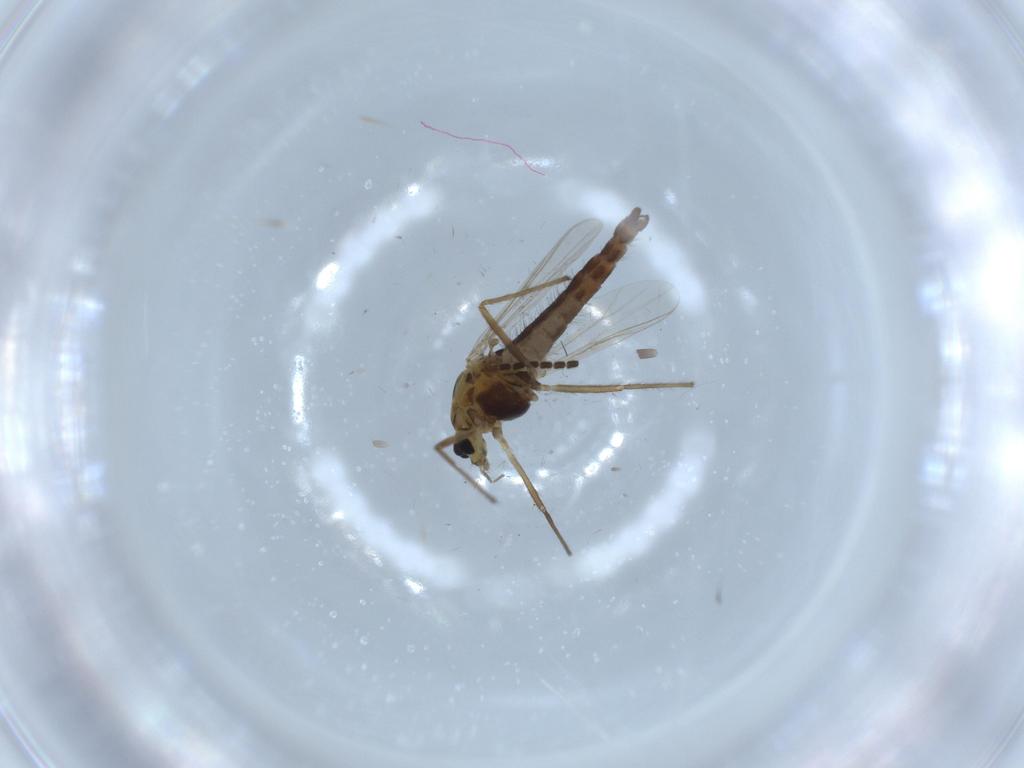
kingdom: Animalia
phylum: Arthropoda
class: Insecta
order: Diptera
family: Chironomidae
